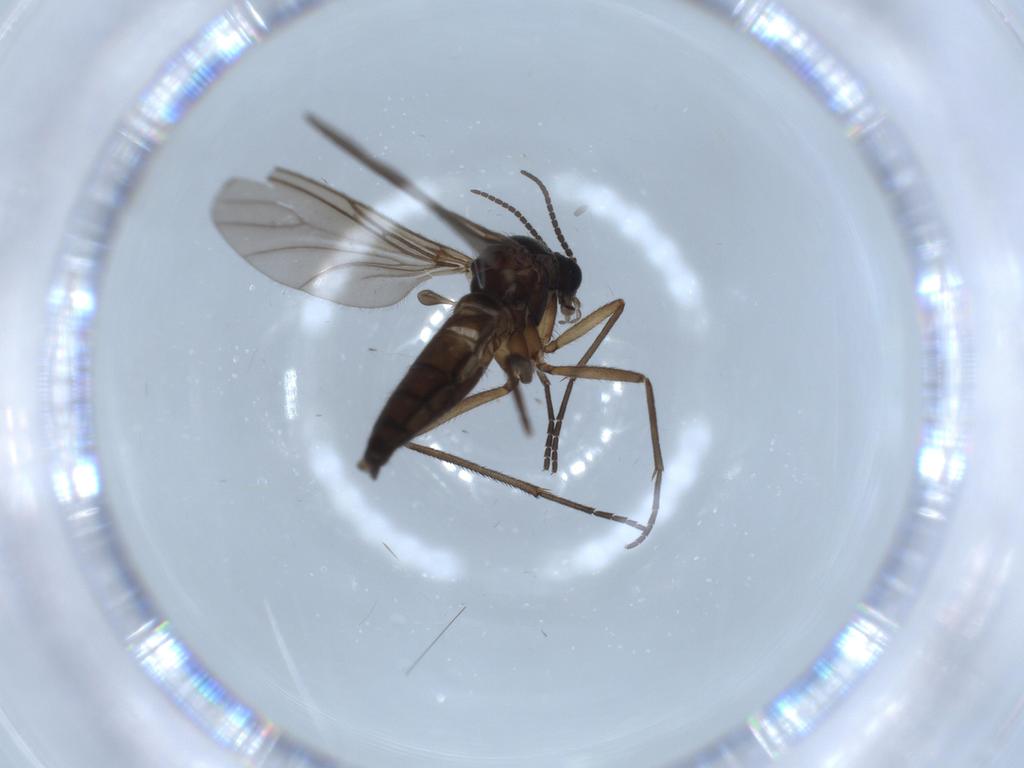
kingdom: Animalia
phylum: Arthropoda
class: Insecta
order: Diptera
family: Sciaridae
